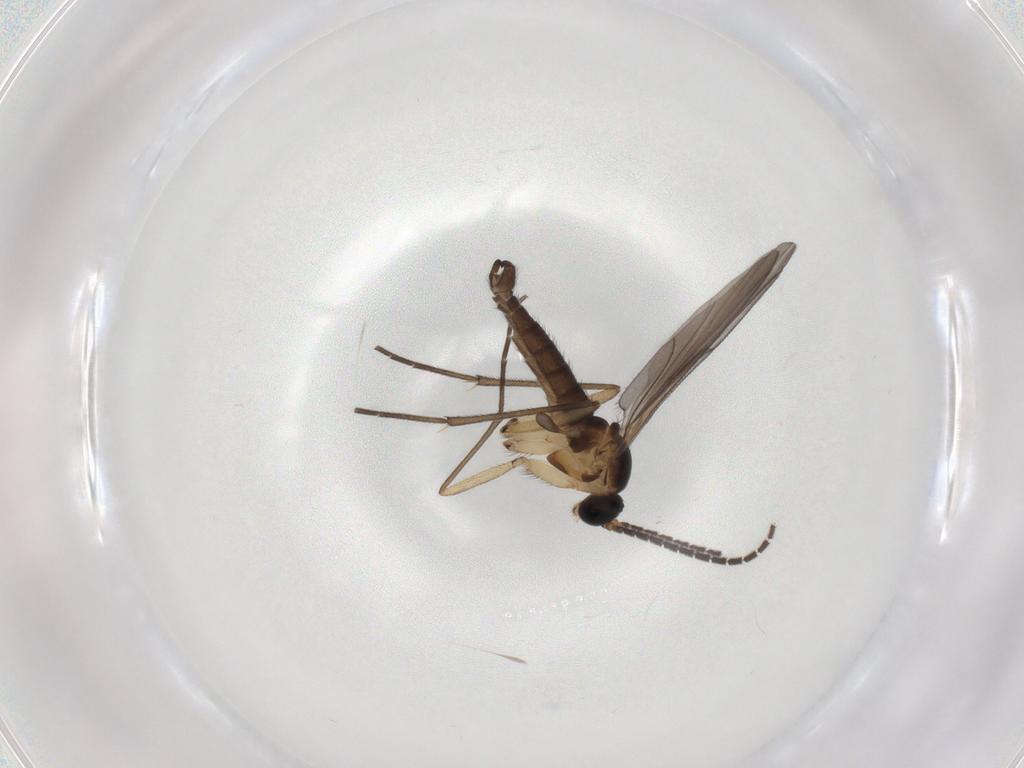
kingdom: Animalia
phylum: Arthropoda
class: Insecta
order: Diptera
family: Sciaridae
